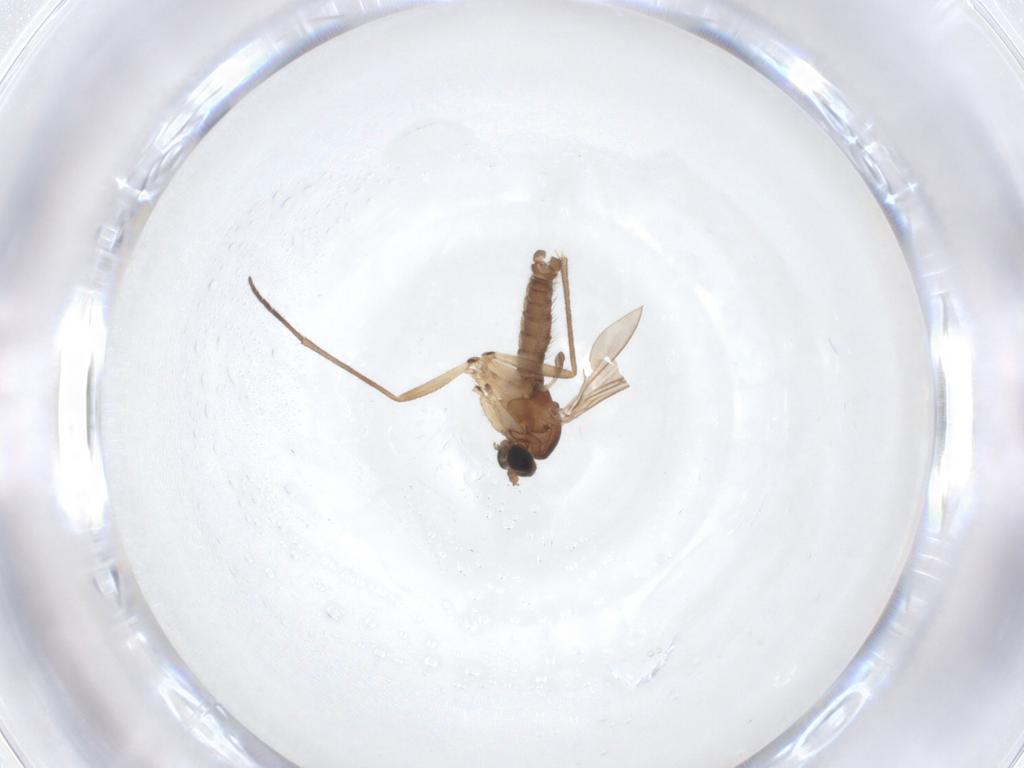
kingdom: Animalia
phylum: Arthropoda
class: Insecta
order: Diptera
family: Sciaridae
